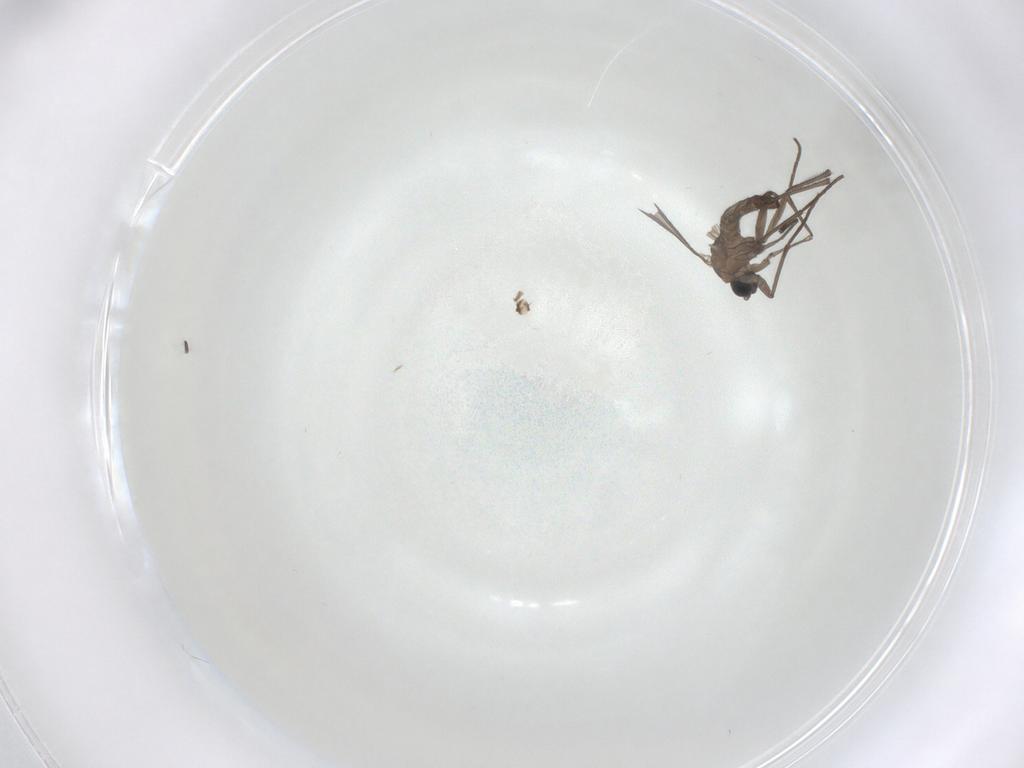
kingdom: Animalia
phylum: Arthropoda
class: Insecta
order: Diptera
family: Sciaridae
